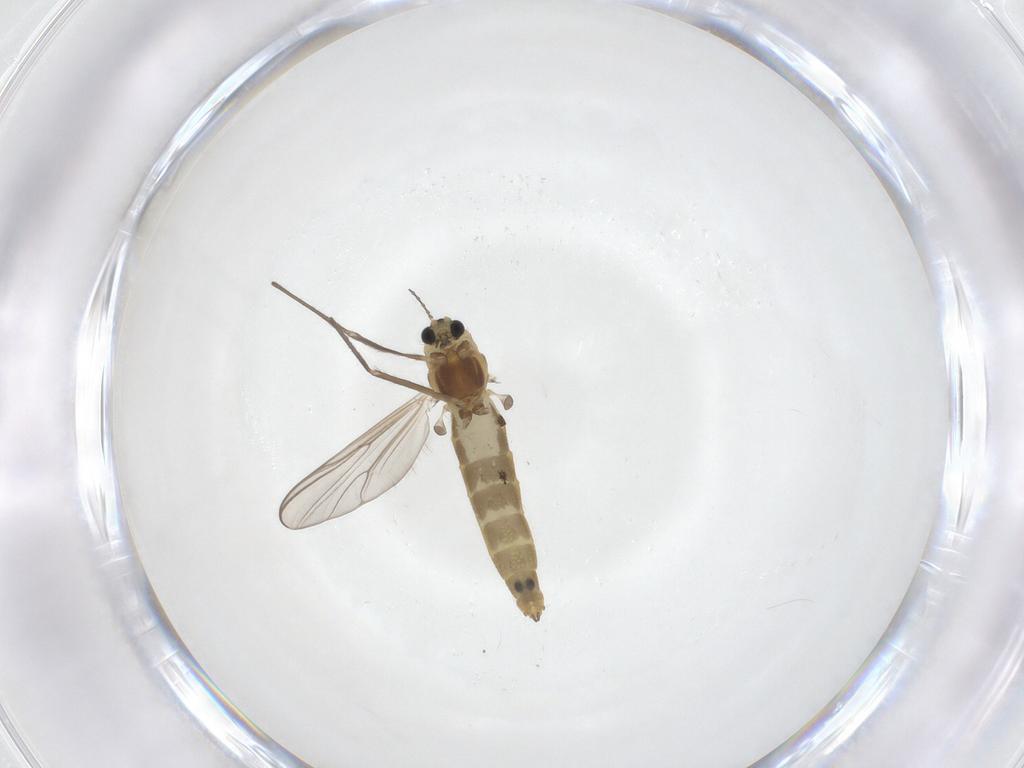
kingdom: Animalia
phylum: Arthropoda
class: Insecta
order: Diptera
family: Chironomidae
